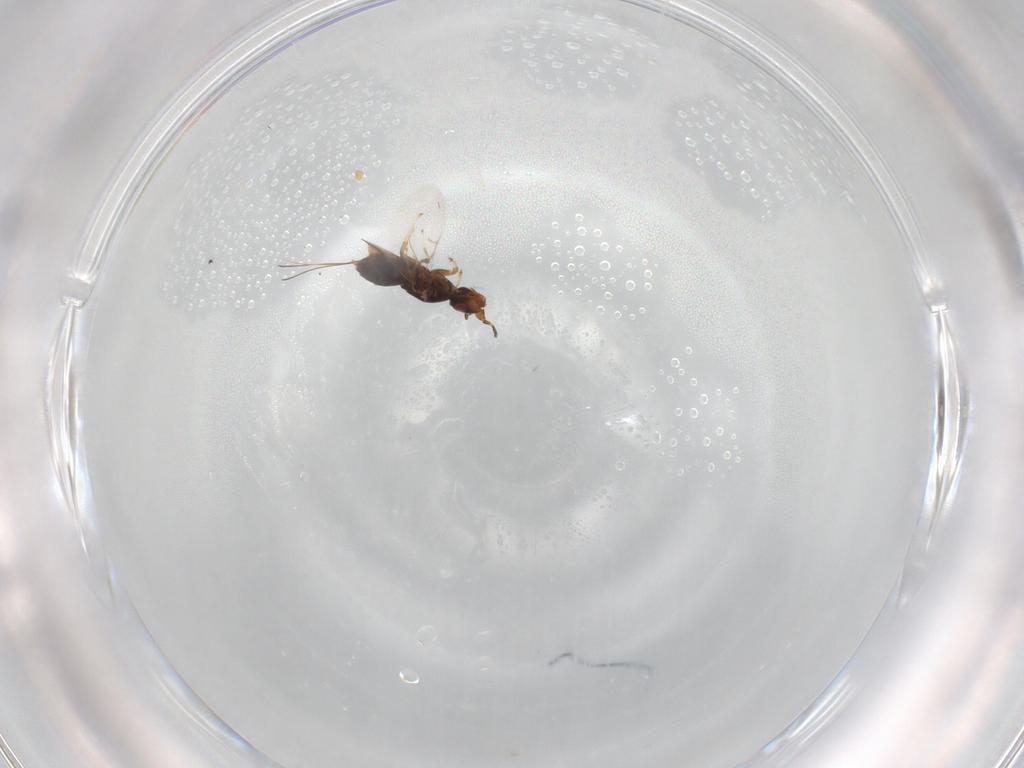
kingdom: Animalia
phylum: Arthropoda
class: Insecta
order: Hymenoptera
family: Agaonidae
